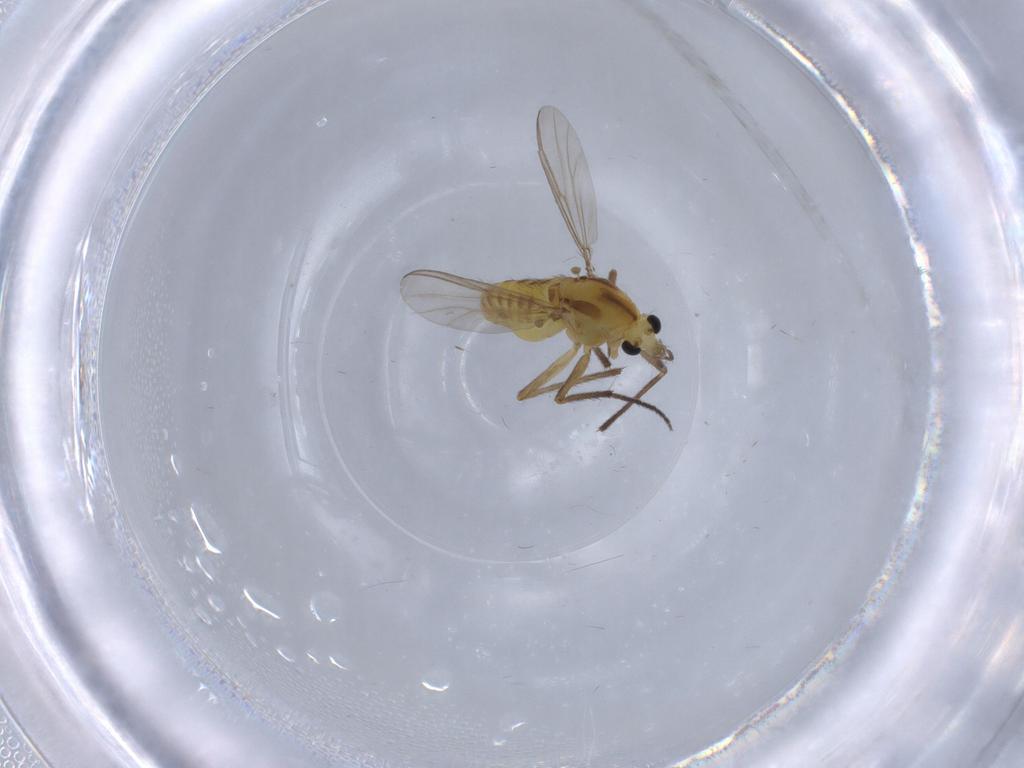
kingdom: Animalia
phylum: Arthropoda
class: Insecta
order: Diptera
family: Chironomidae
